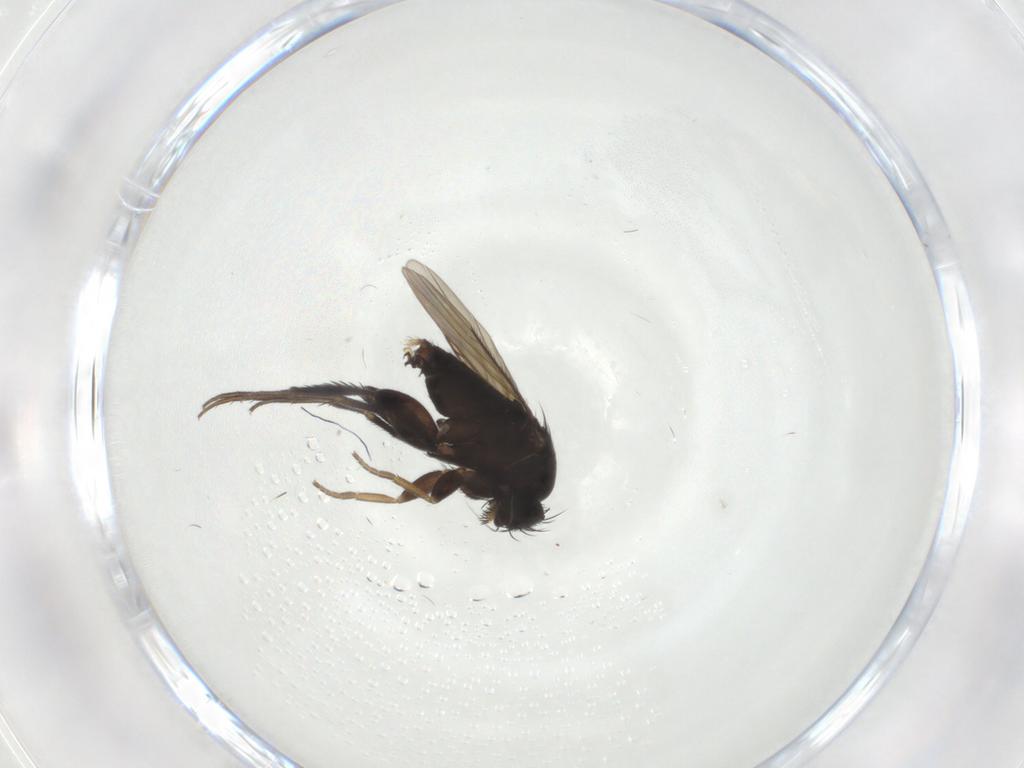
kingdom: Animalia
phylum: Arthropoda
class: Insecta
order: Diptera
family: Phoridae
